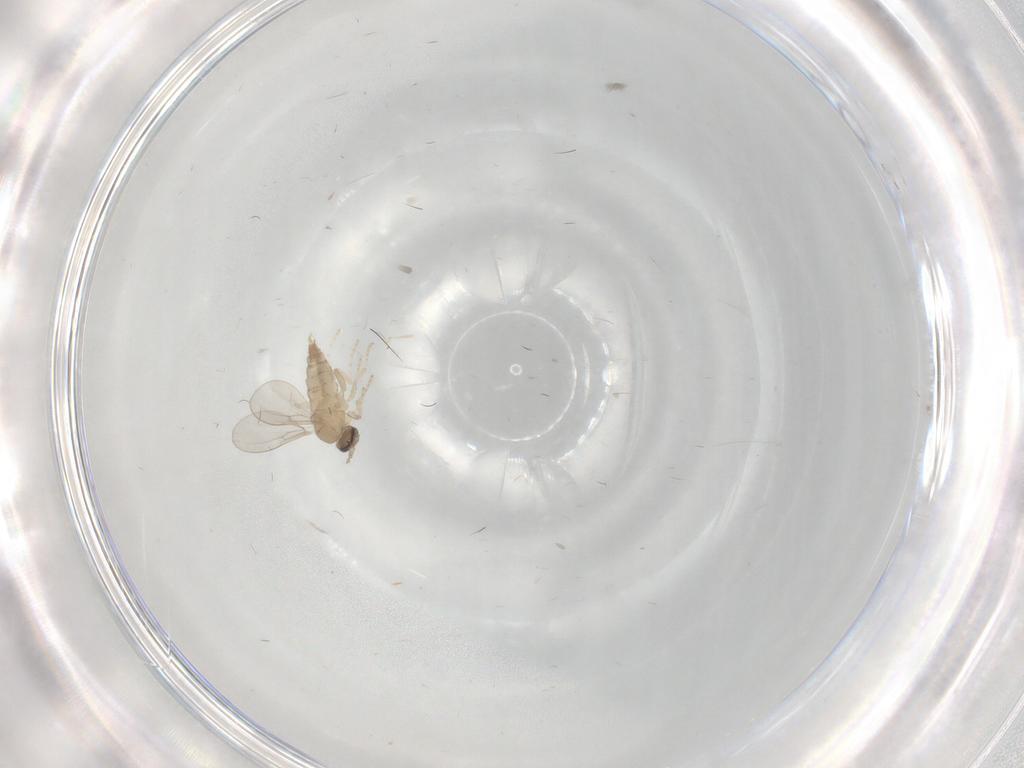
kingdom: Animalia
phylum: Arthropoda
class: Insecta
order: Diptera
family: Cecidomyiidae
